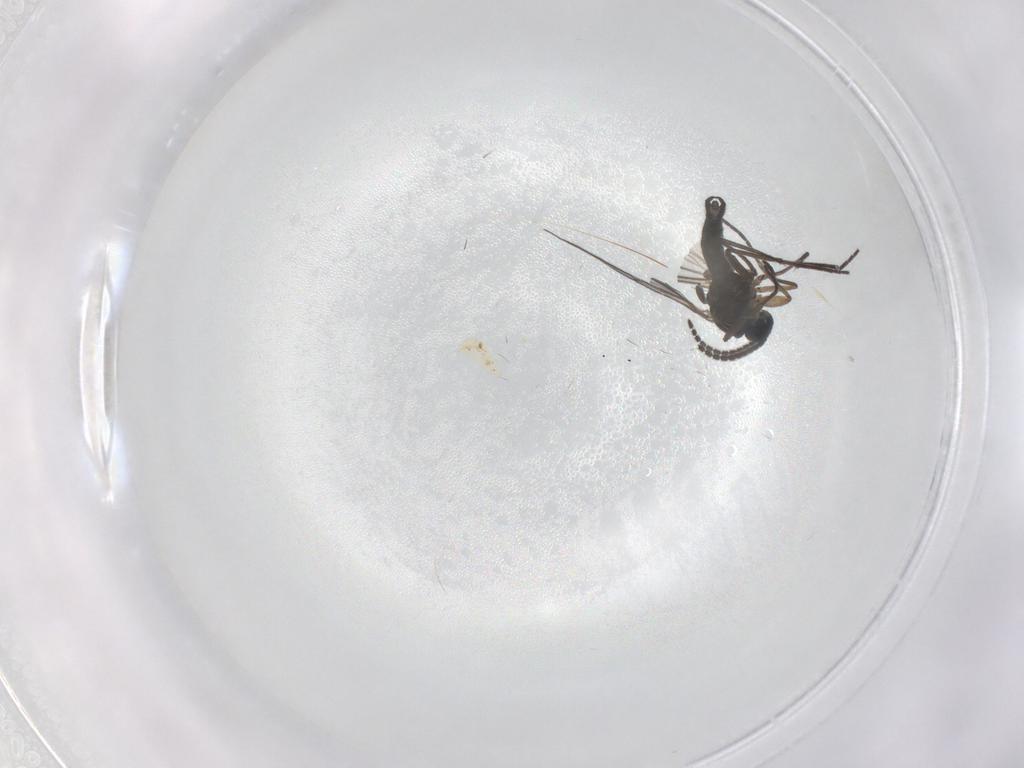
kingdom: Animalia
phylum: Arthropoda
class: Insecta
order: Diptera
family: Sciaridae
